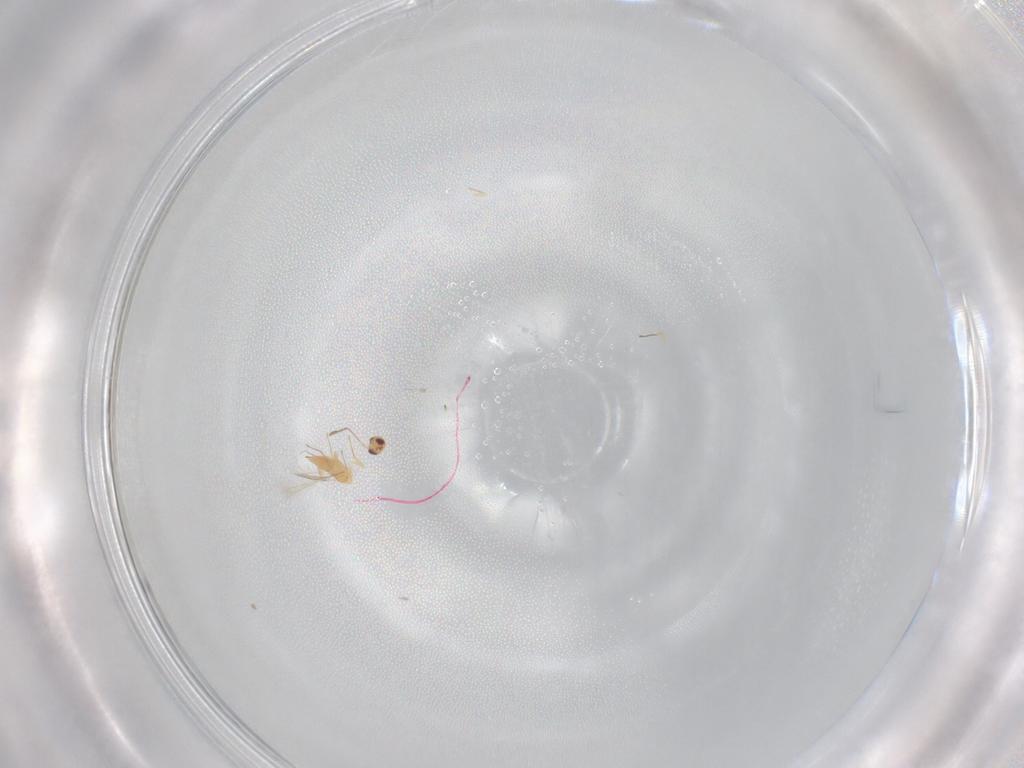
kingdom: Animalia
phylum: Arthropoda
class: Insecta
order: Hymenoptera
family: Mymaridae
